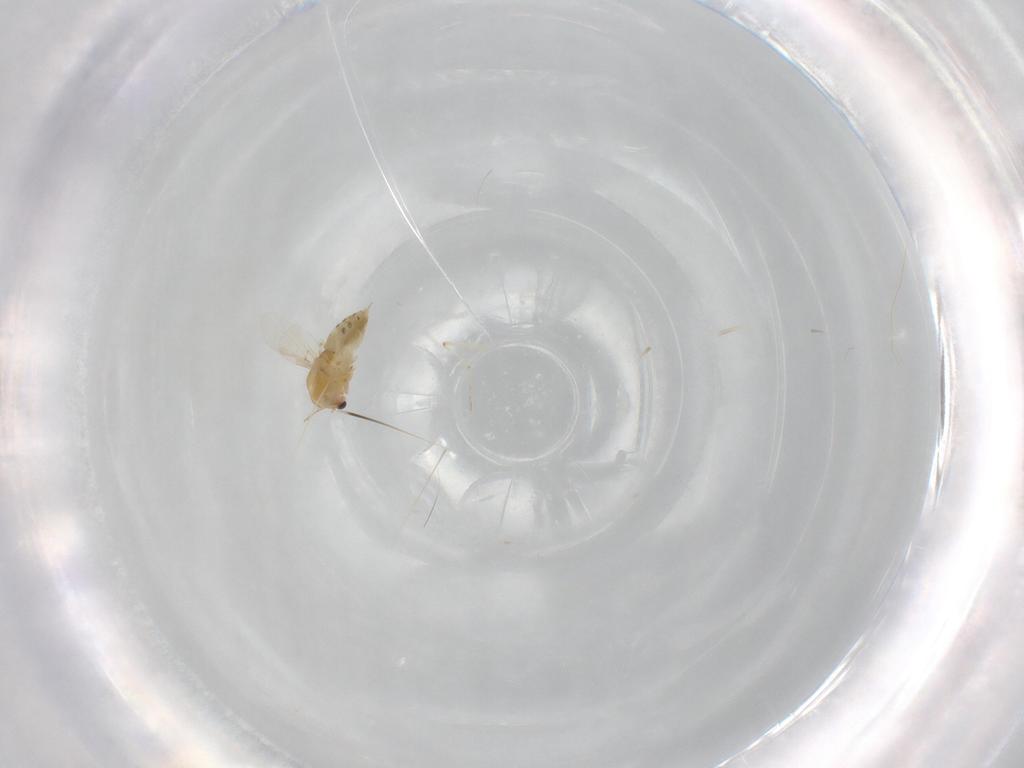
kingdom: Animalia
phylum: Arthropoda
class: Insecta
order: Diptera
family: Chironomidae
